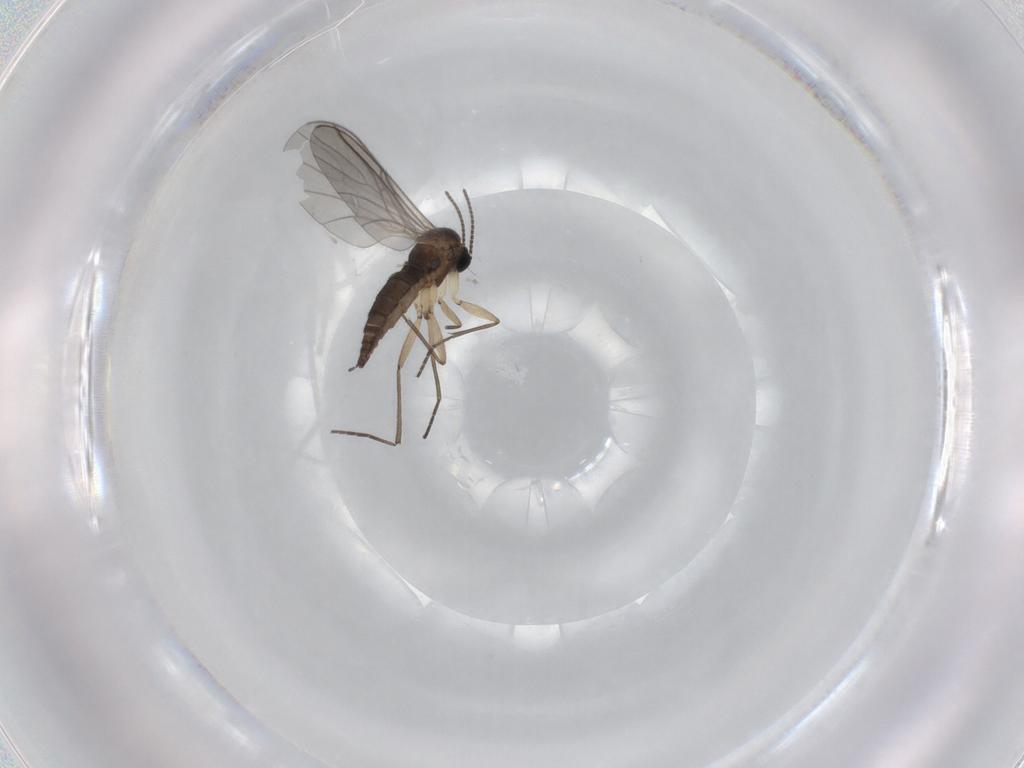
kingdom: Animalia
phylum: Arthropoda
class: Insecta
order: Diptera
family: Sciaridae
